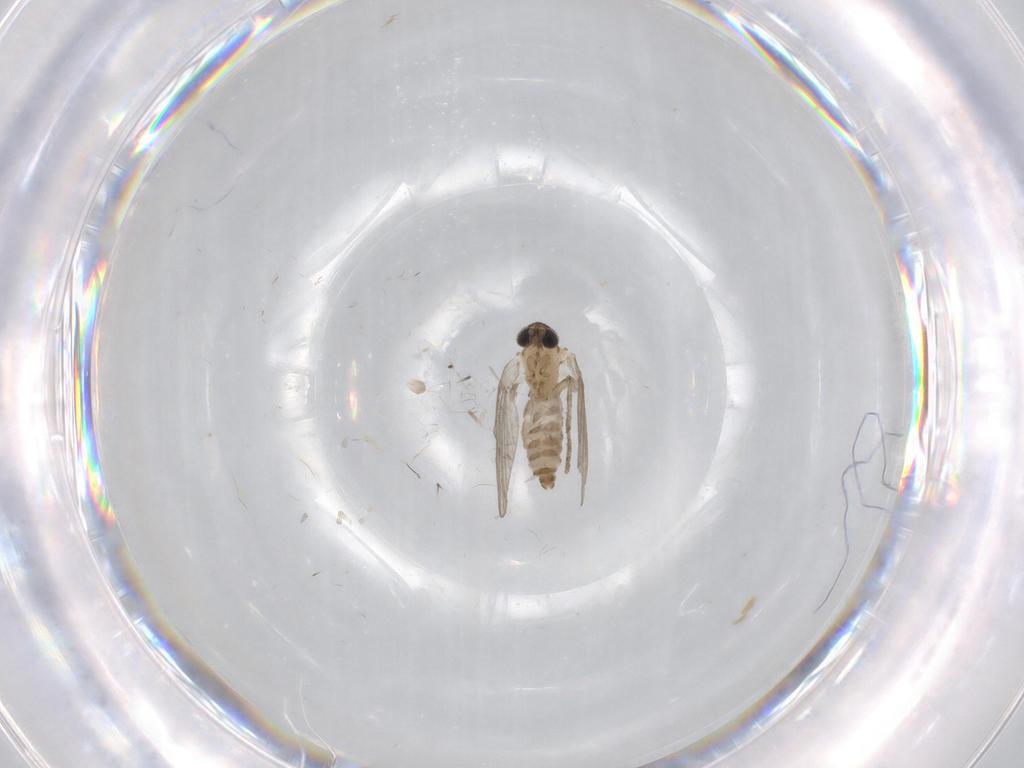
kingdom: Animalia
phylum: Arthropoda
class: Insecta
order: Diptera
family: Psychodidae
